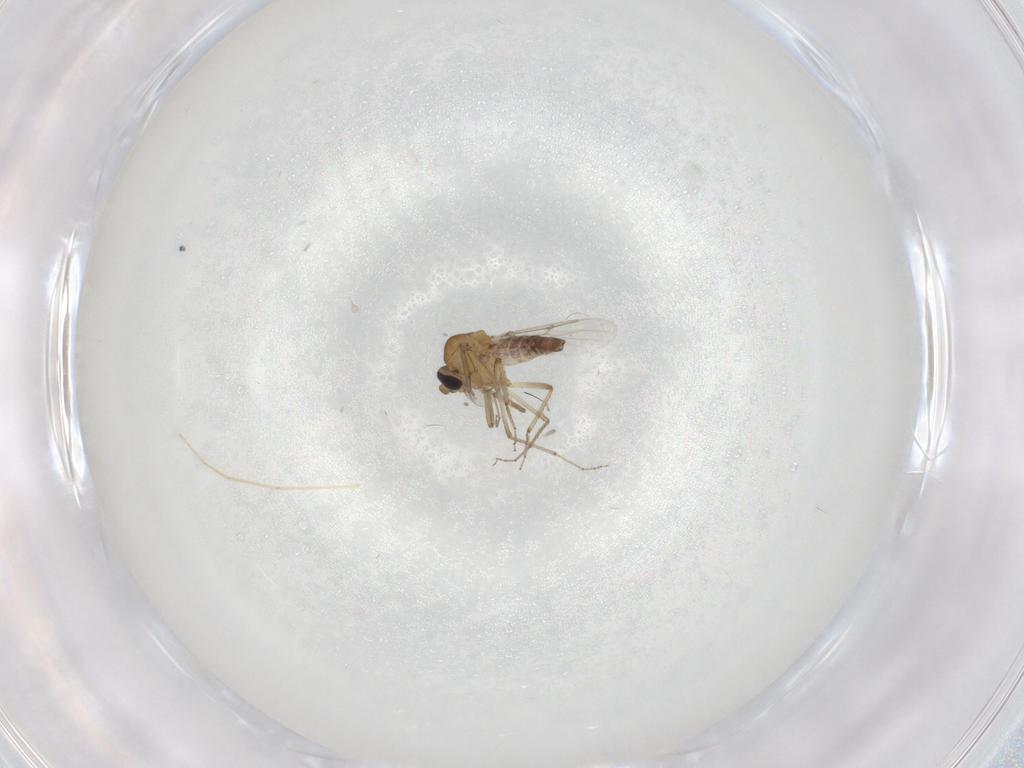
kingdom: Animalia
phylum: Arthropoda
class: Insecta
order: Diptera
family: Chironomidae
